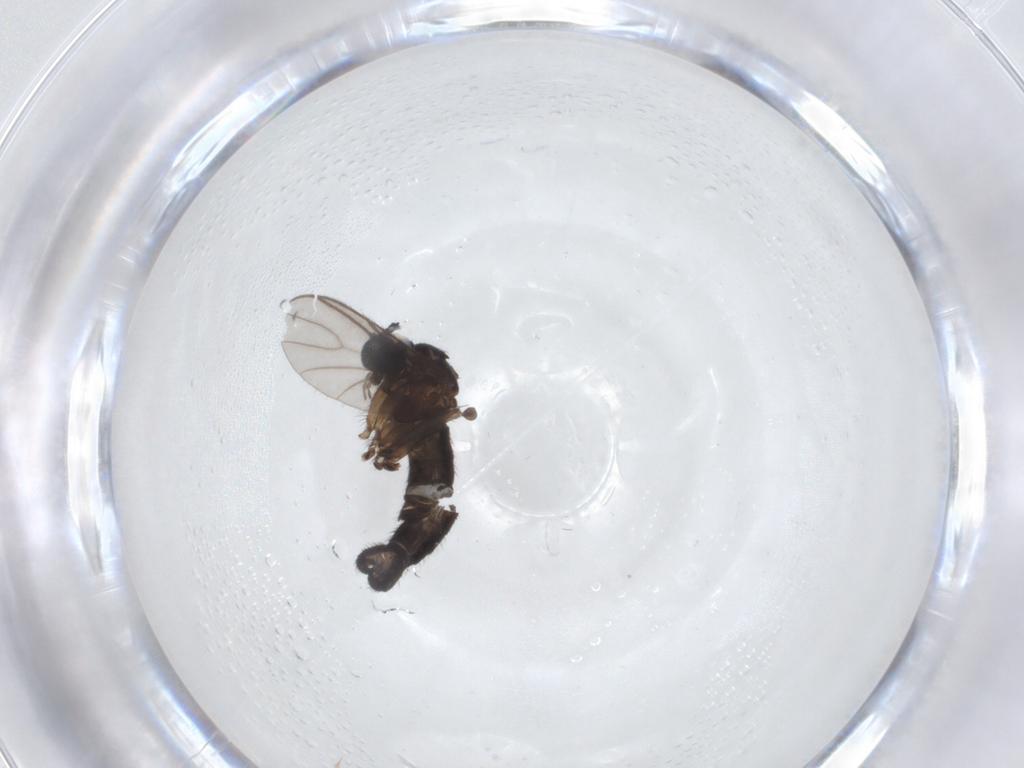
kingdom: Animalia
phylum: Arthropoda
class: Insecta
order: Diptera
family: Sciaridae
